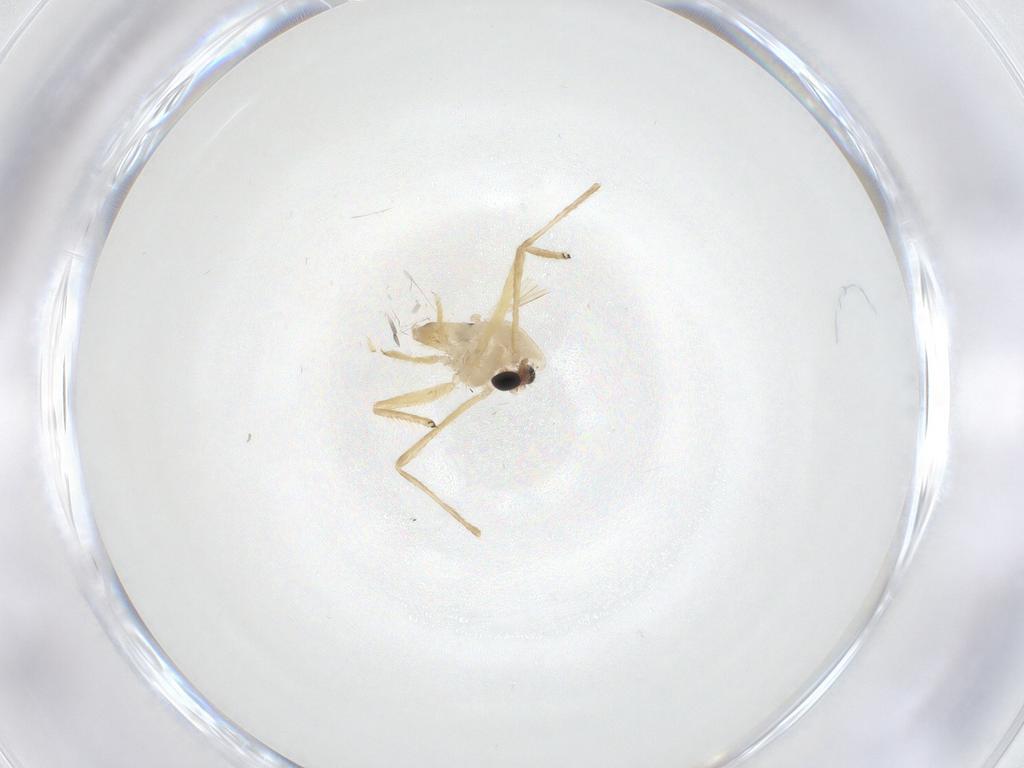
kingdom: Animalia
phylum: Arthropoda
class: Insecta
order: Diptera
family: Chironomidae
